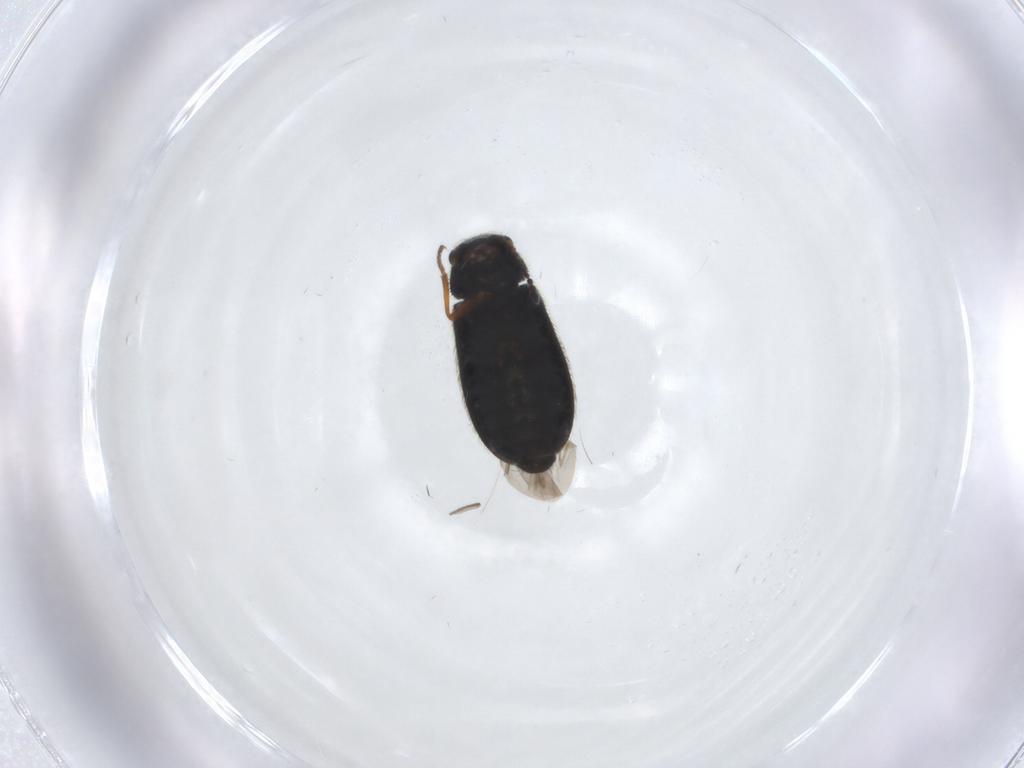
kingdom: Animalia
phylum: Arthropoda
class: Insecta
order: Coleoptera
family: Melyridae
